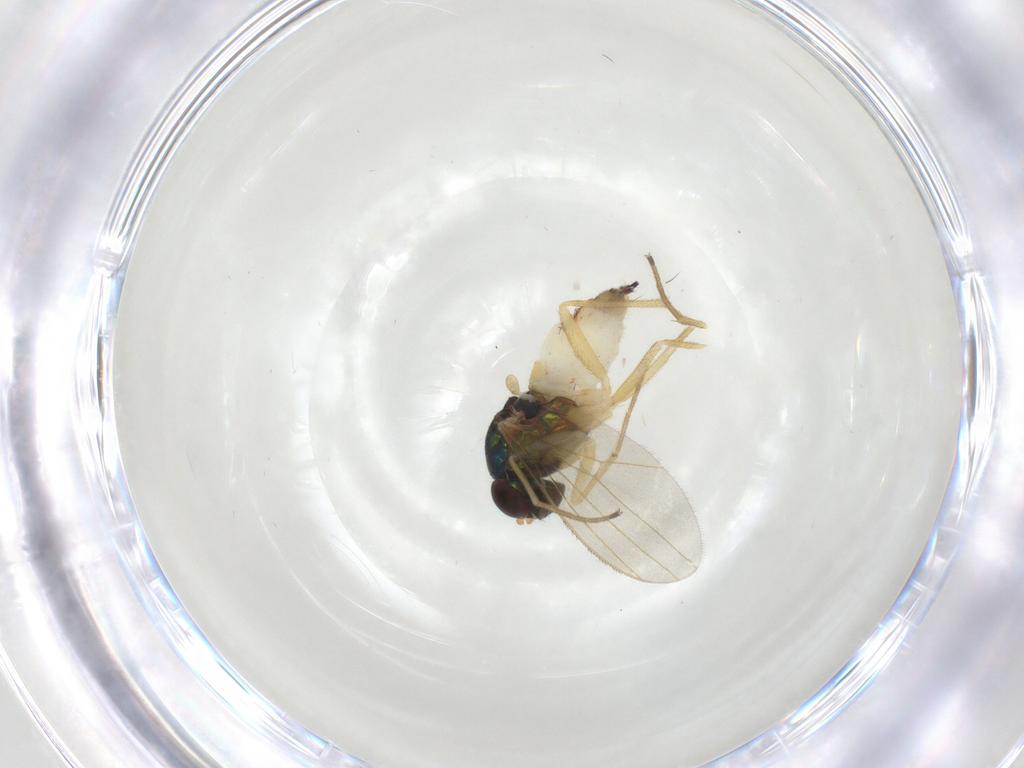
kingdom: Animalia
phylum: Arthropoda
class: Insecta
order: Diptera
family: Dolichopodidae
